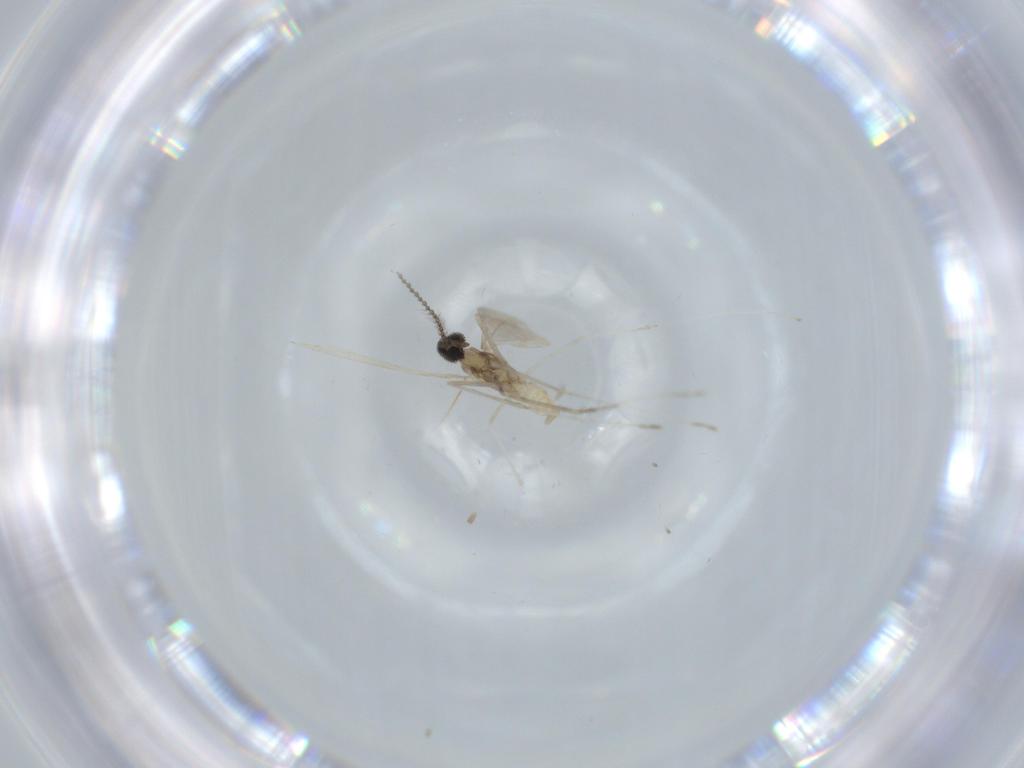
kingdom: Animalia
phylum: Arthropoda
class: Insecta
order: Diptera
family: Cecidomyiidae
